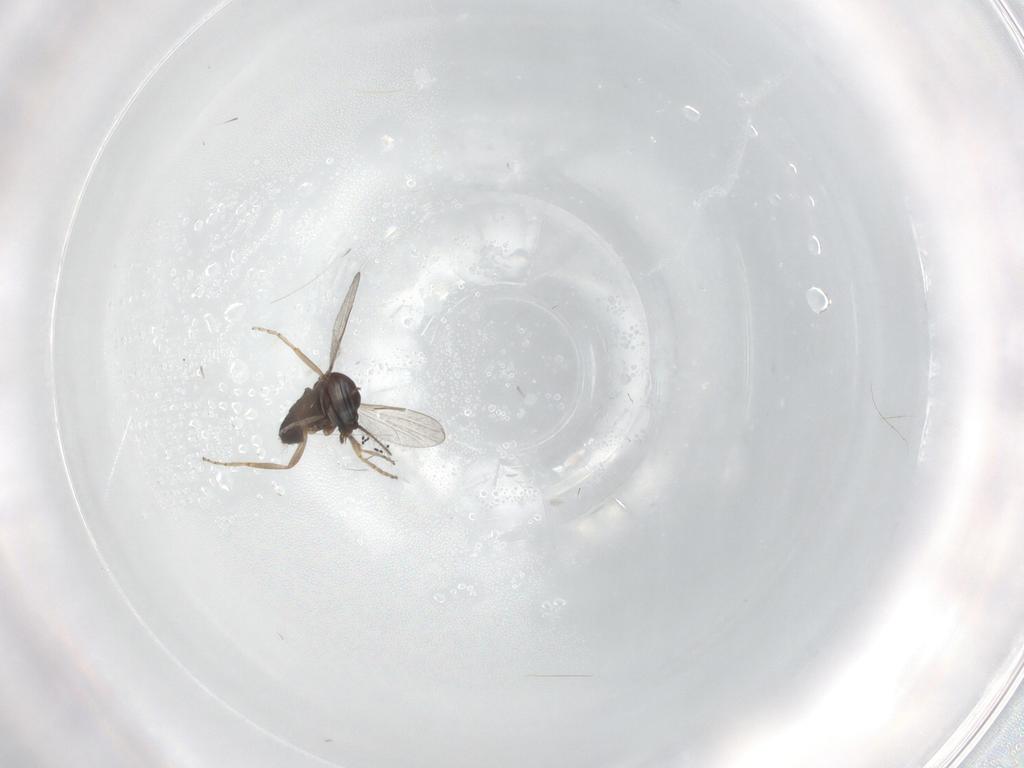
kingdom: Animalia
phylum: Arthropoda
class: Insecta
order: Diptera
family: Ceratopogonidae
